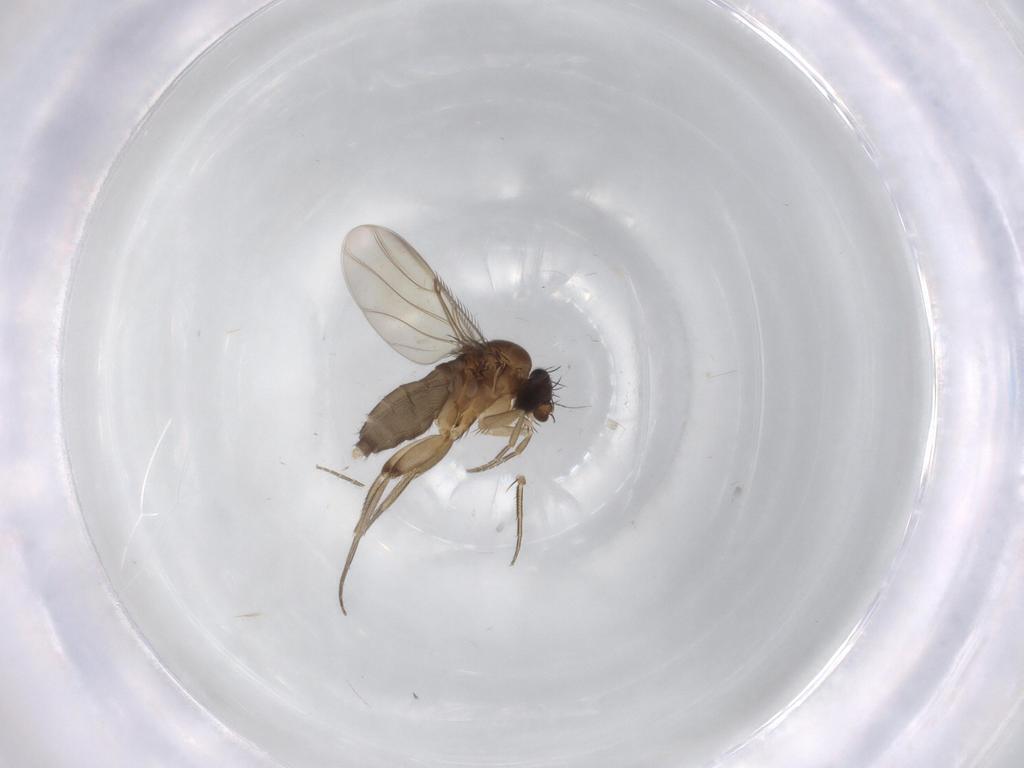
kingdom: Animalia
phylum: Arthropoda
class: Insecta
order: Diptera
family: Phoridae
